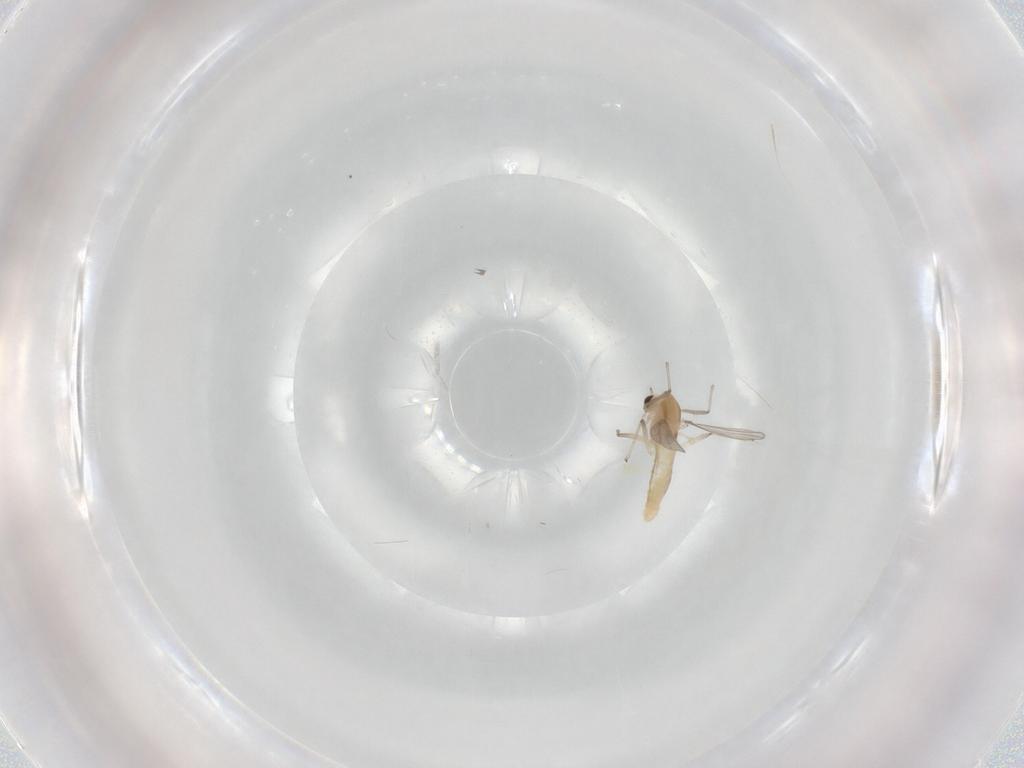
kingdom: Animalia
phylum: Arthropoda
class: Insecta
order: Diptera
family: Chironomidae
